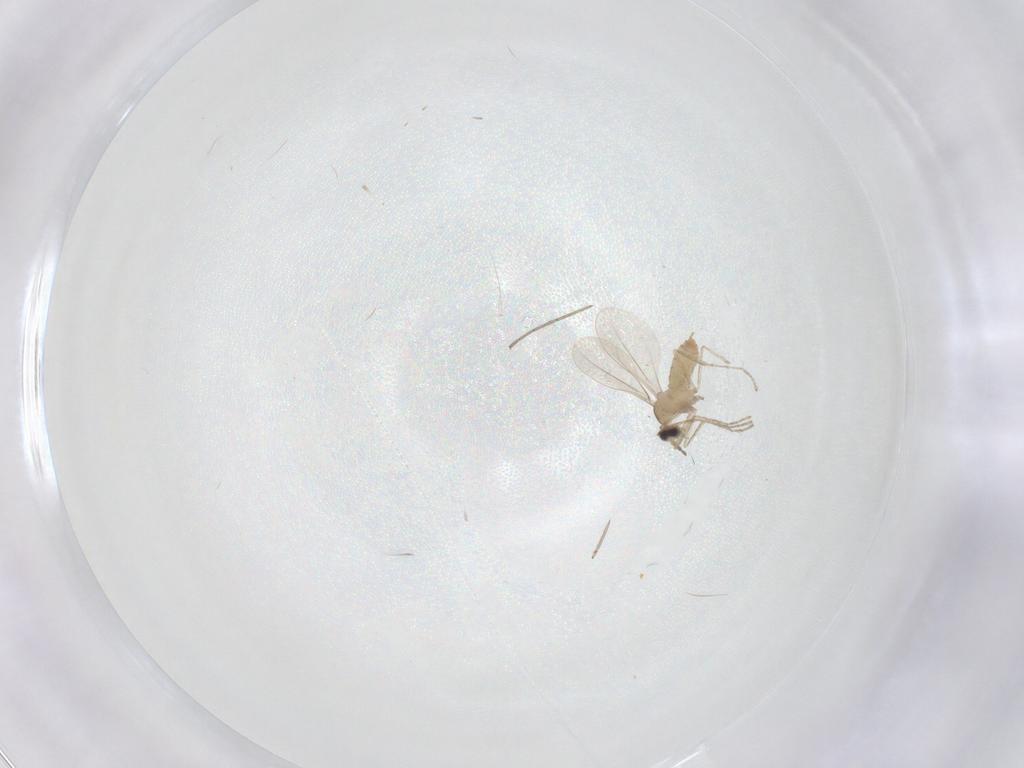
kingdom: Animalia
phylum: Arthropoda
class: Insecta
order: Diptera
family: Cecidomyiidae
